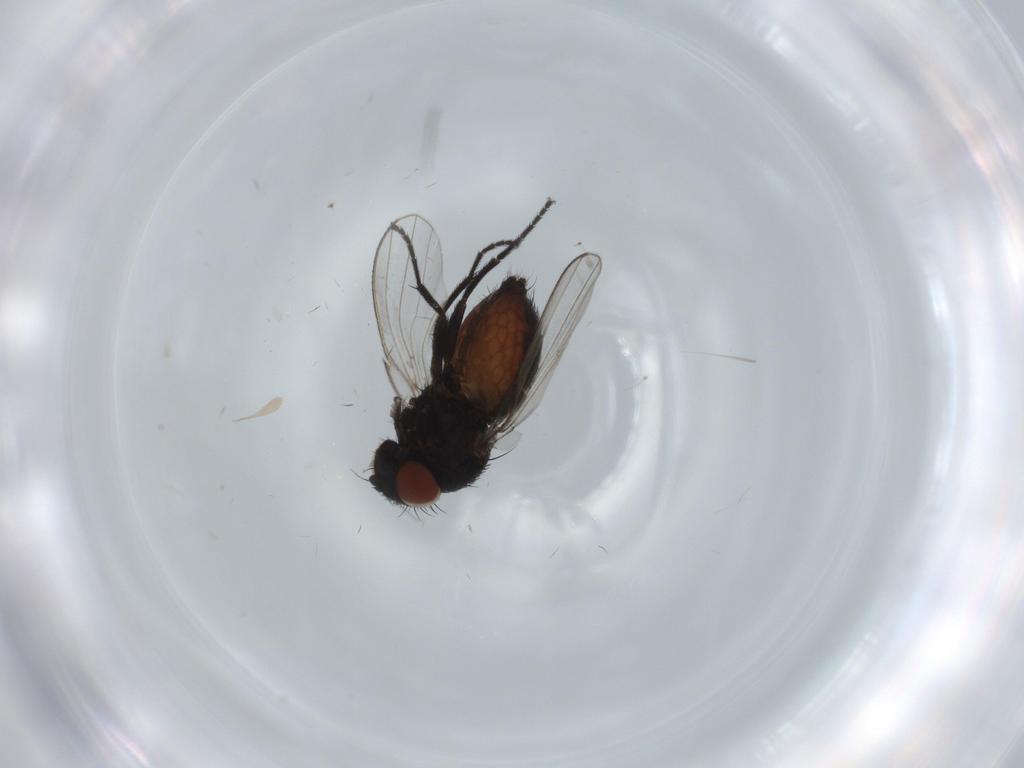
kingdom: Animalia
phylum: Arthropoda
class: Insecta
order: Diptera
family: Milichiidae
